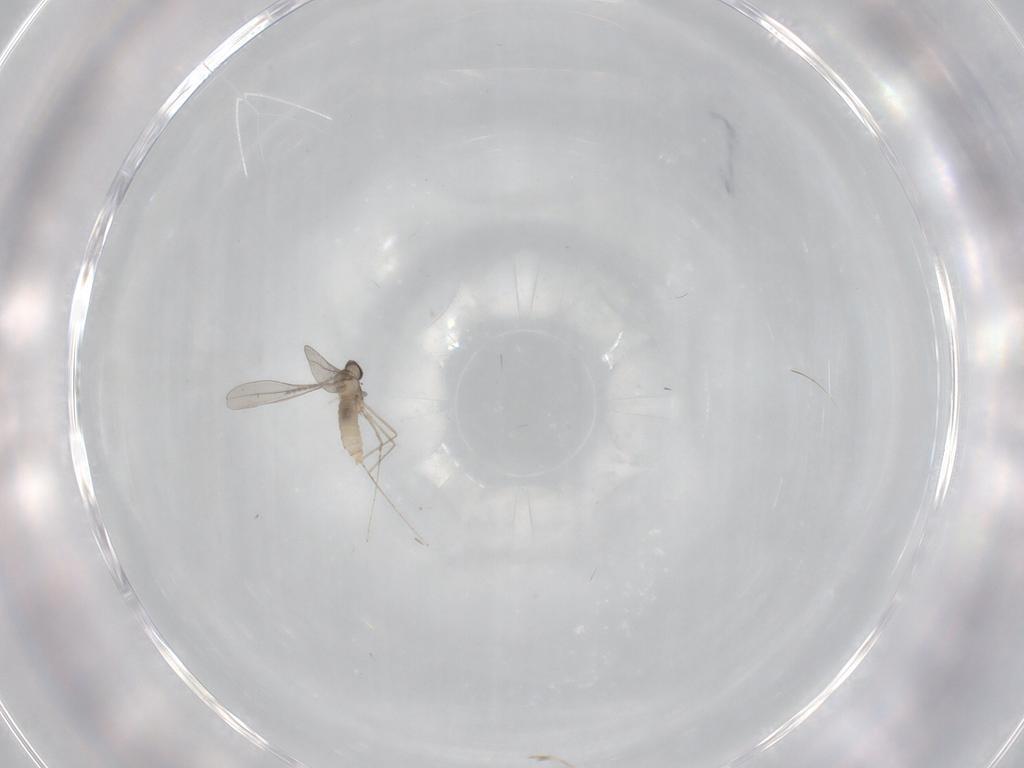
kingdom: Animalia
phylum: Arthropoda
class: Insecta
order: Diptera
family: Cecidomyiidae
